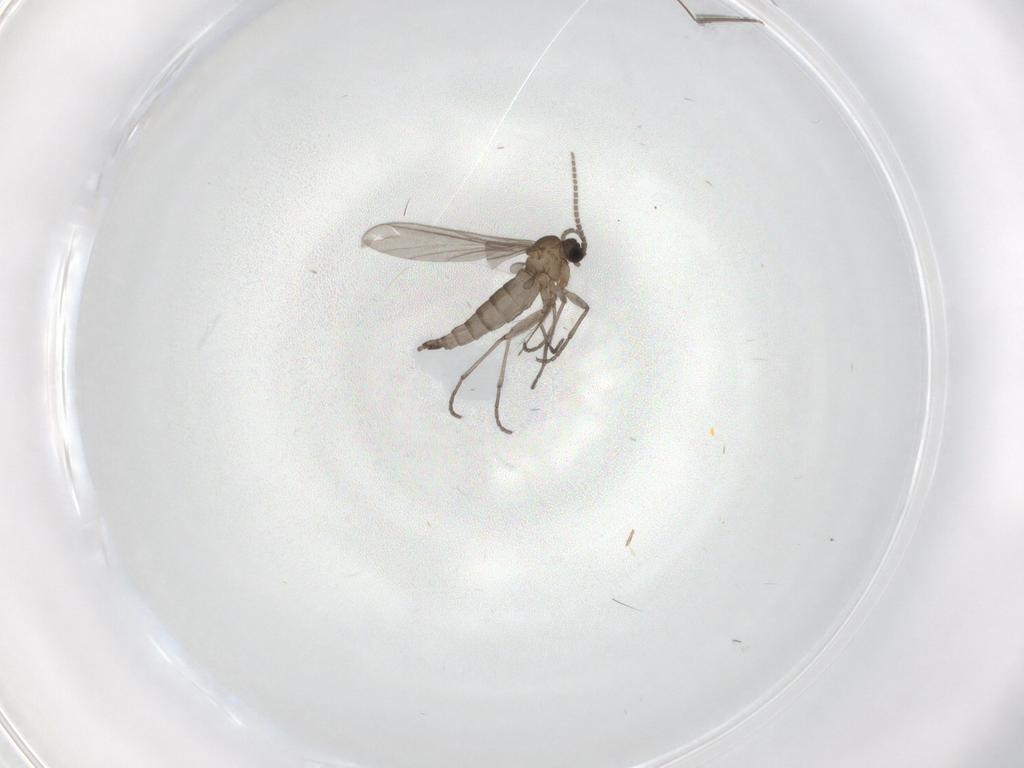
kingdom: Animalia
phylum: Arthropoda
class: Insecta
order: Diptera
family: Sciaridae
